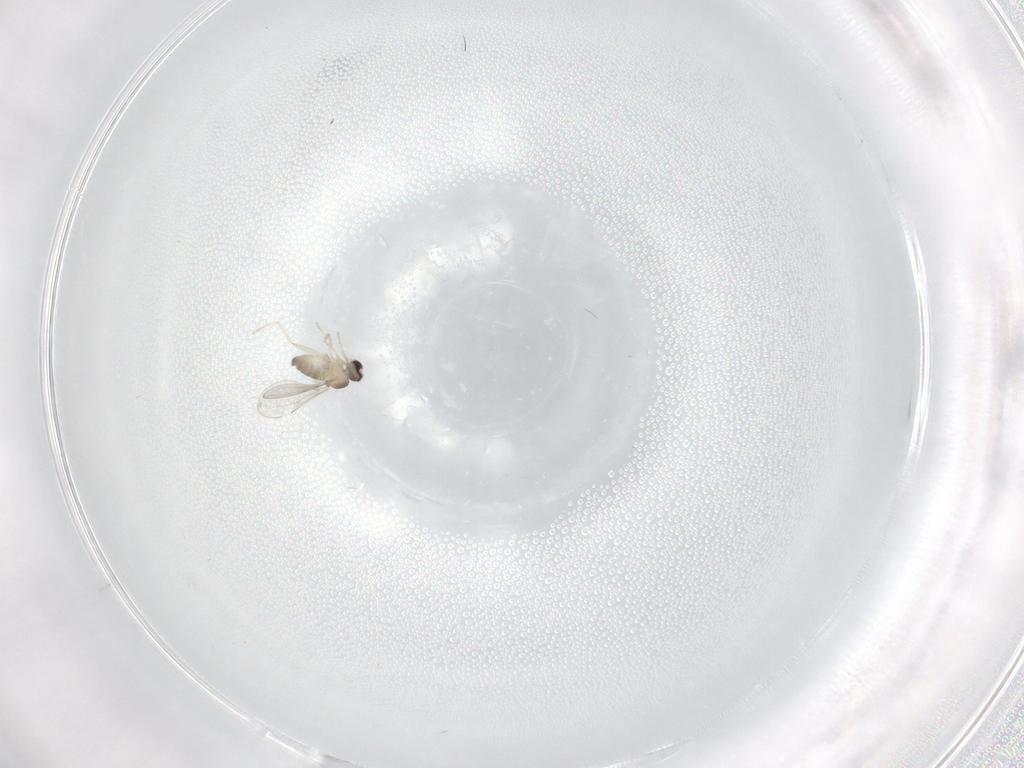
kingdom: Animalia
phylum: Arthropoda
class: Insecta
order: Diptera
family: Cecidomyiidae
